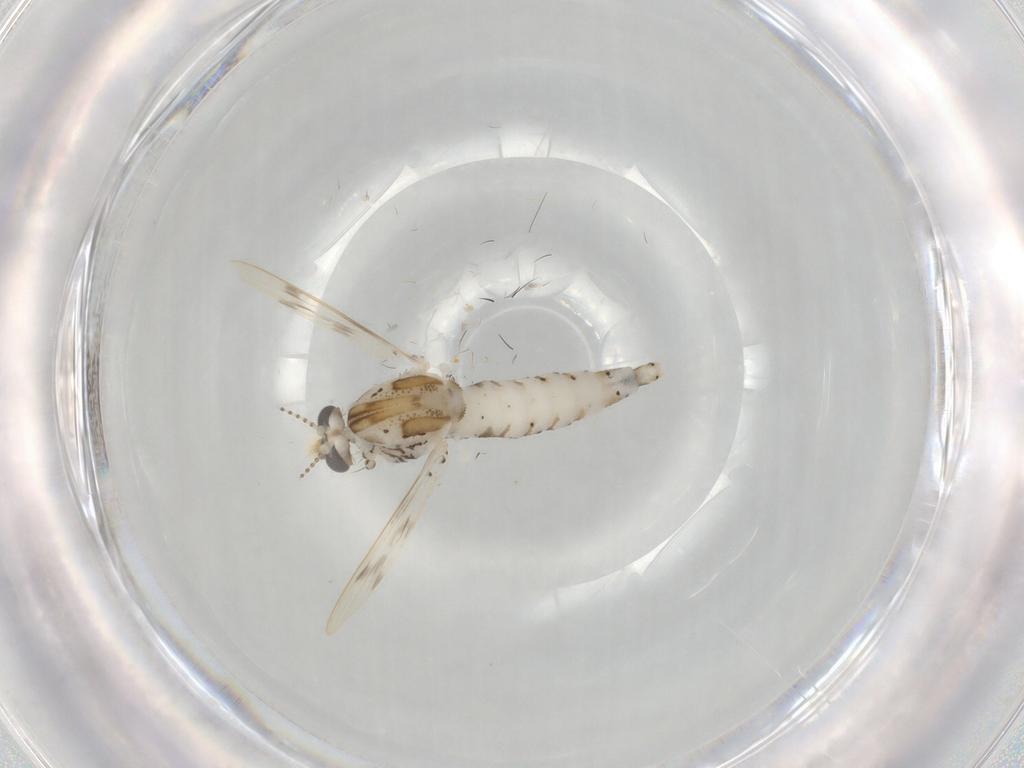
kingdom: Animalia
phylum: Arthropoda
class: Insecta
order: Diptera
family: Chaoboridae
